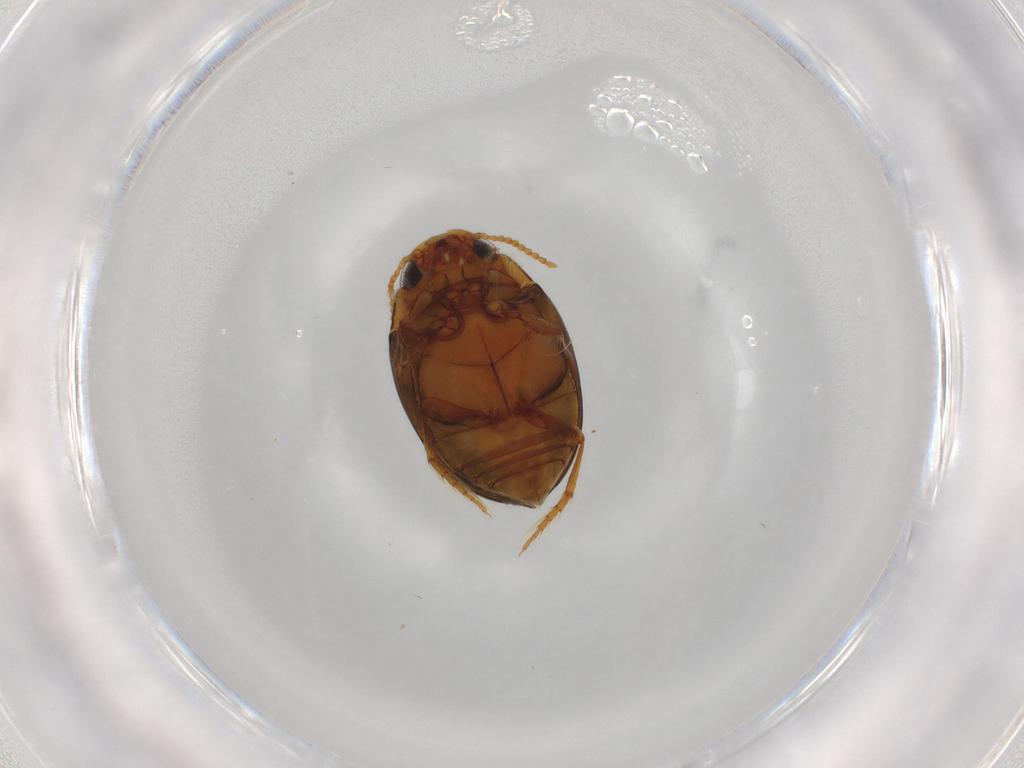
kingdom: Animalia
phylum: Arthropoda
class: Insecta
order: Coleoptera
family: Dytiscidae
